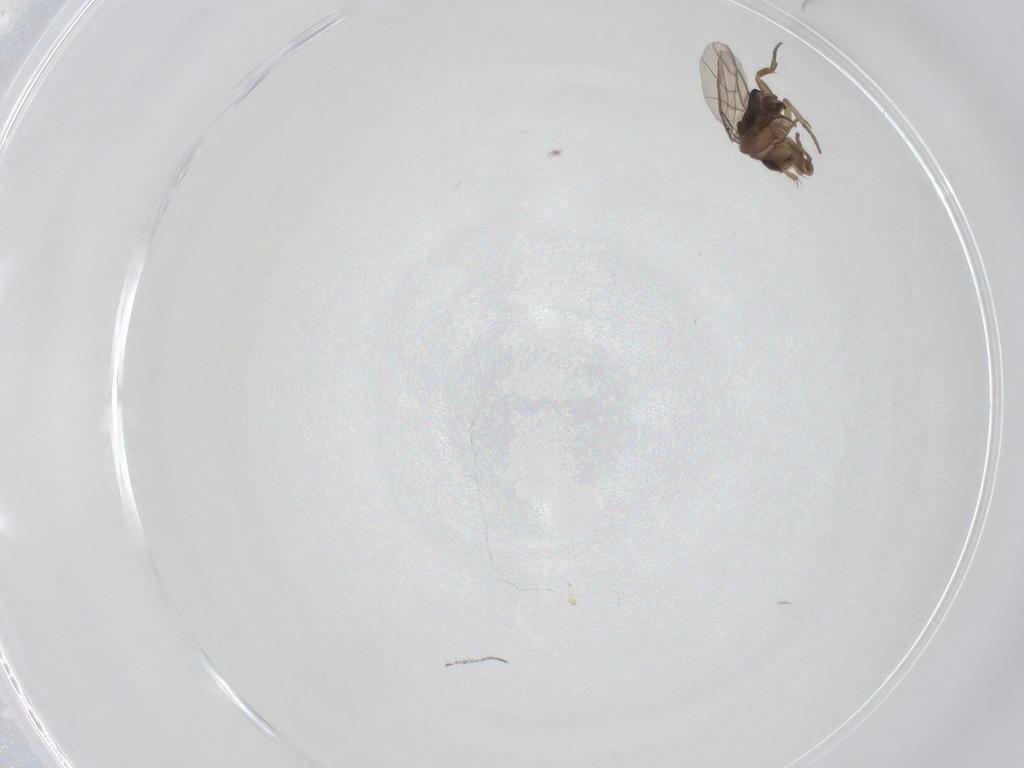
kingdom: Animalia
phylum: Arthropoda
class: Insecta
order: Diptera
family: Phoridae
